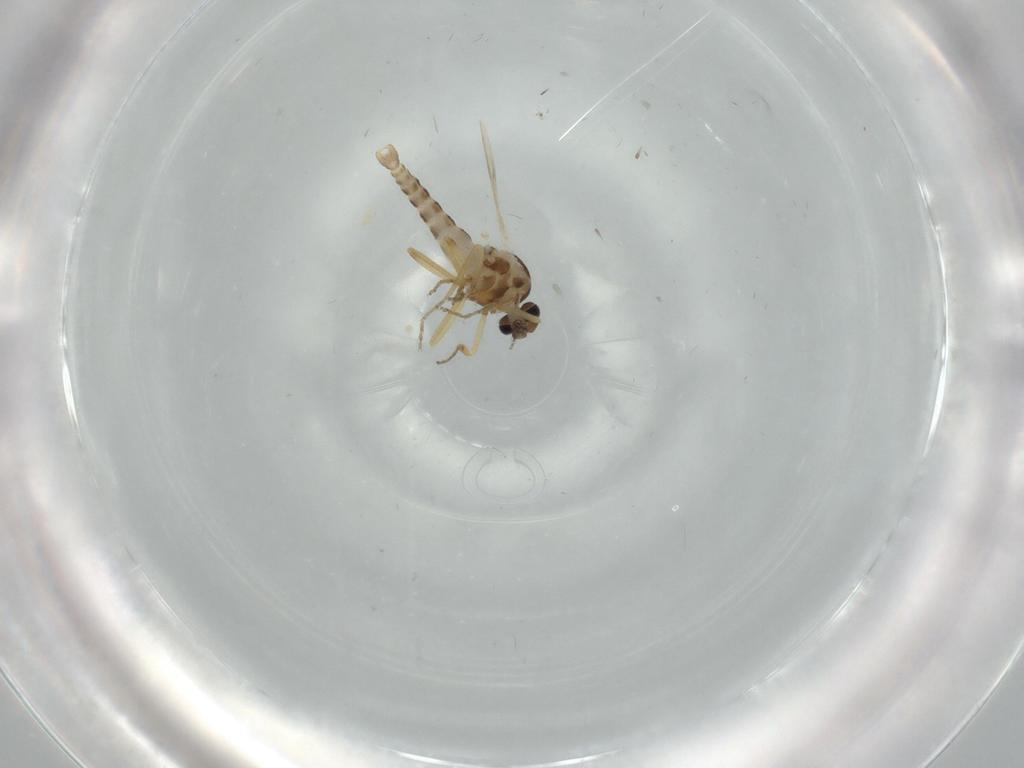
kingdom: Animalia
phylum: Arthropoda
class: Insecta
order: Diptera
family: Ceratopogonidae
